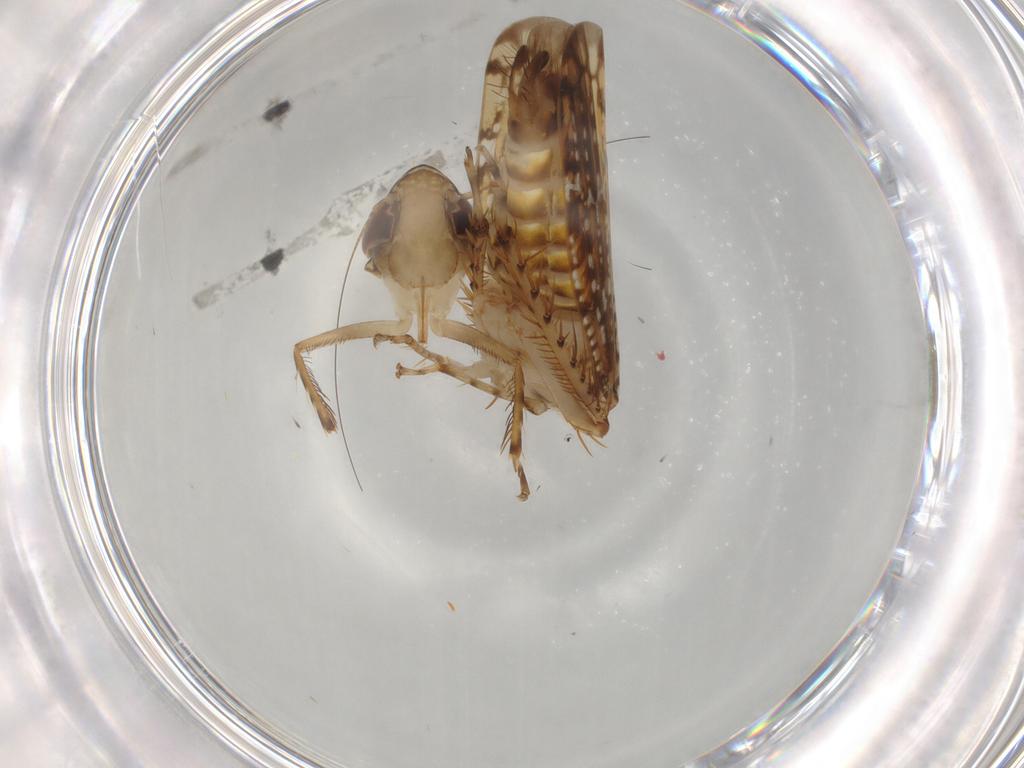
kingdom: Animalia
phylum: Arthropoda
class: Insecta
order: Hemiptera
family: Cicadellidae
